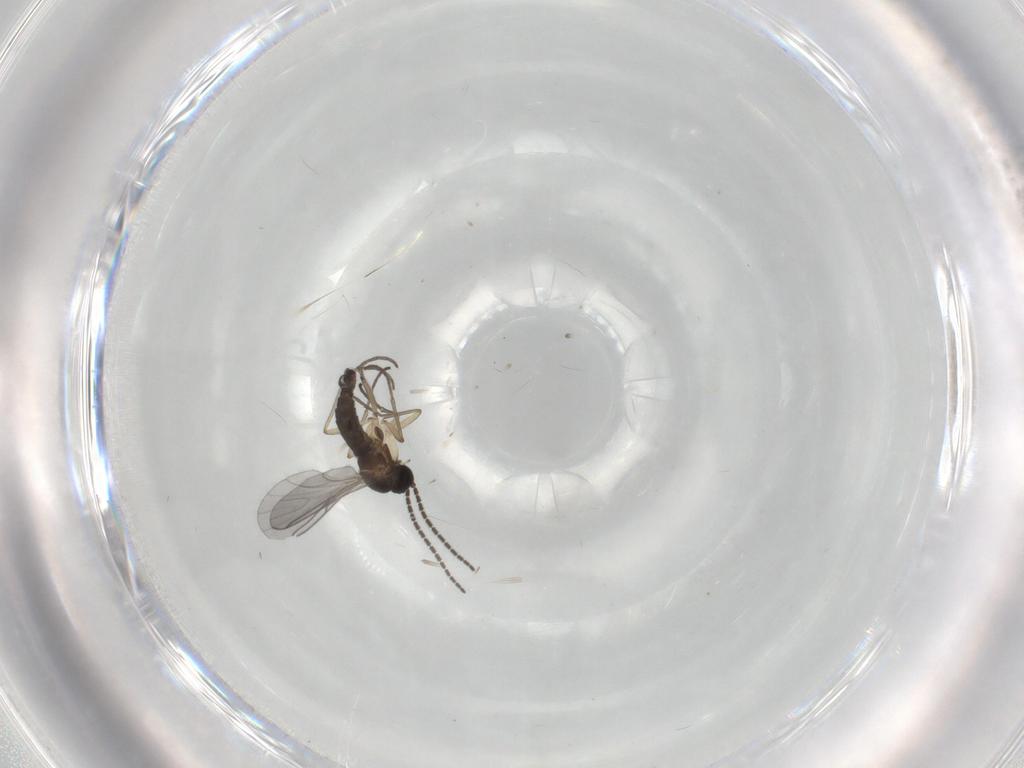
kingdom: Animalia
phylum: Arthropoda
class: Insecta
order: Diptera
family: Sciaridae
